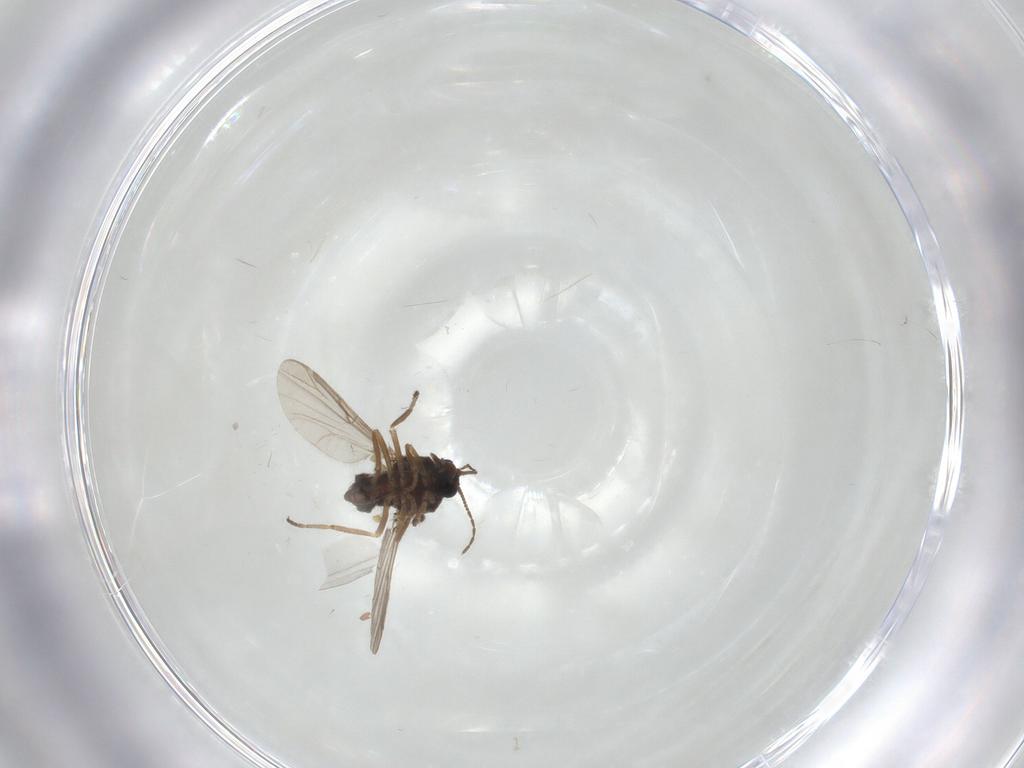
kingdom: Animalia
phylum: Arthropoda
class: Insecta
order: Diptera
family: Ceratopogonidae
